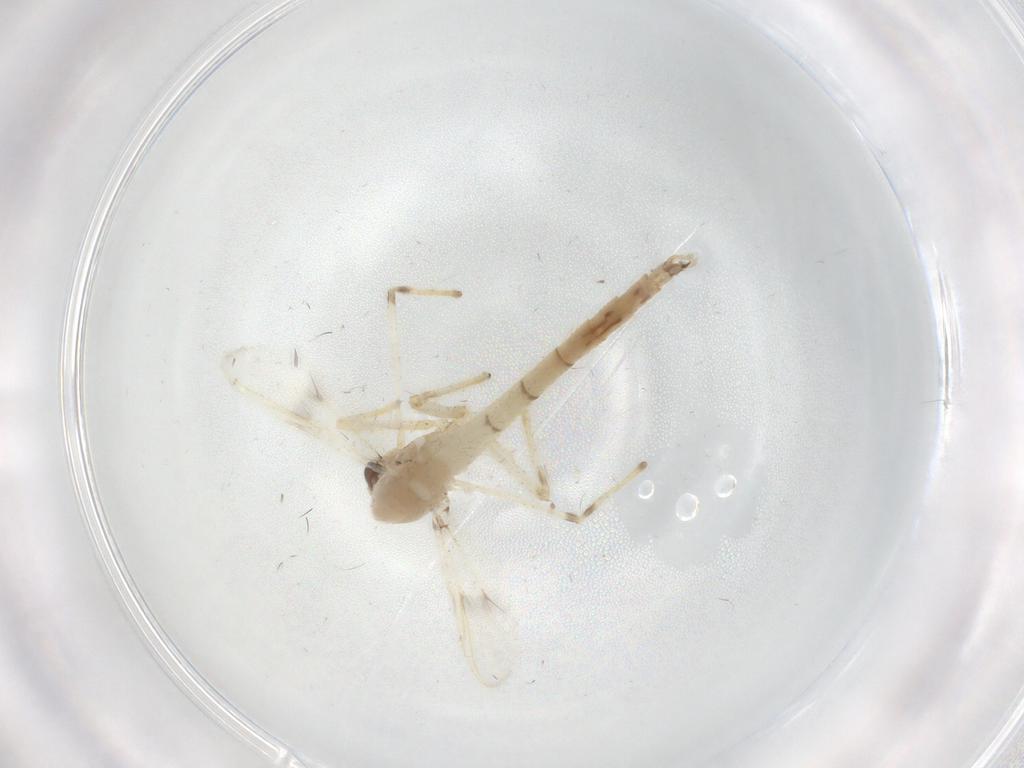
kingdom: Animalia
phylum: Arthropoda
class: Insecta
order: Diptera
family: Chironomidae
